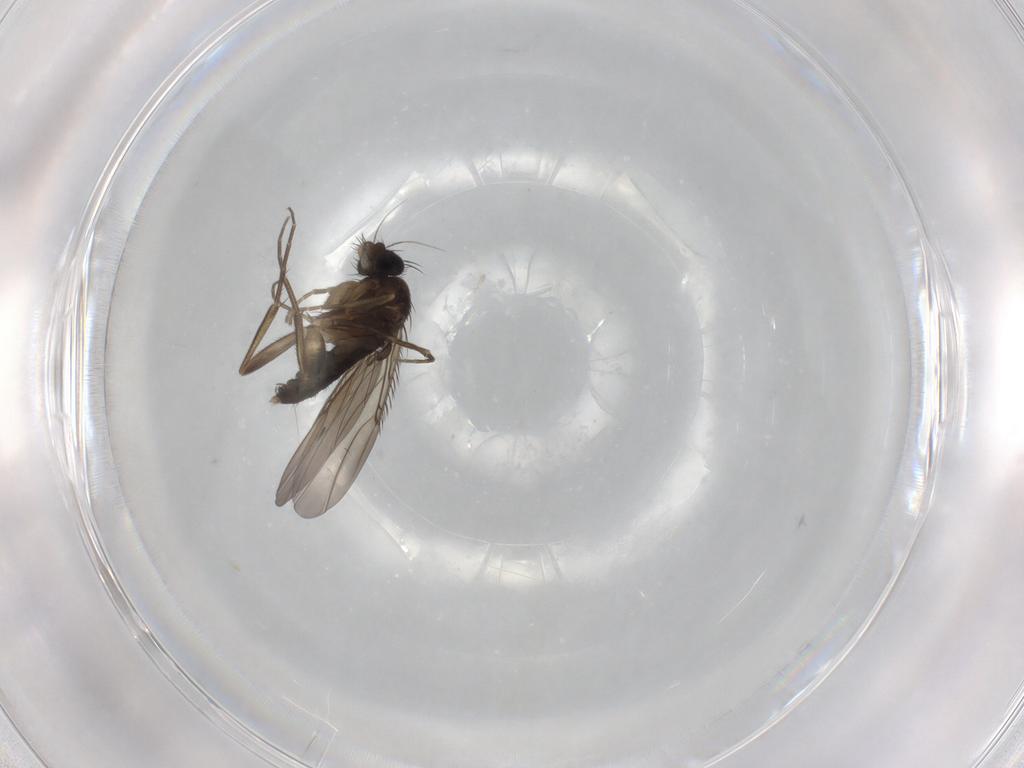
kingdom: Animalia
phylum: Arthropoda
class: Insecta
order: Diptera
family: Phoridae
